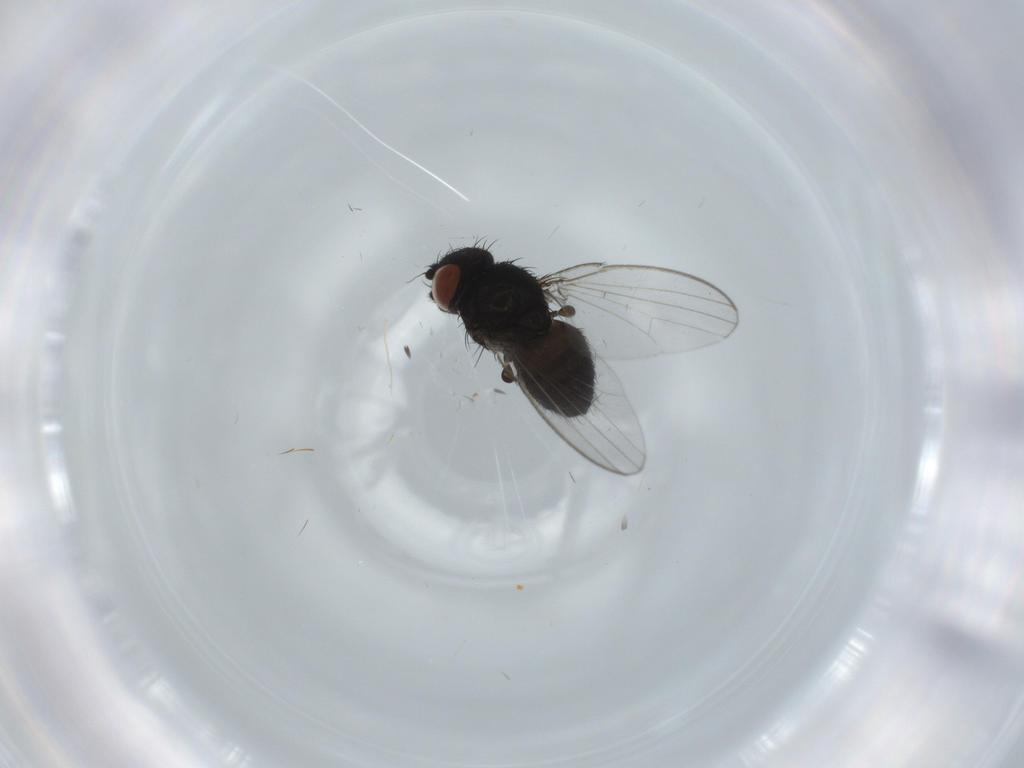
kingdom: Animalia
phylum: Arthropoda
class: Insecta
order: Diptera
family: Milichiidae
